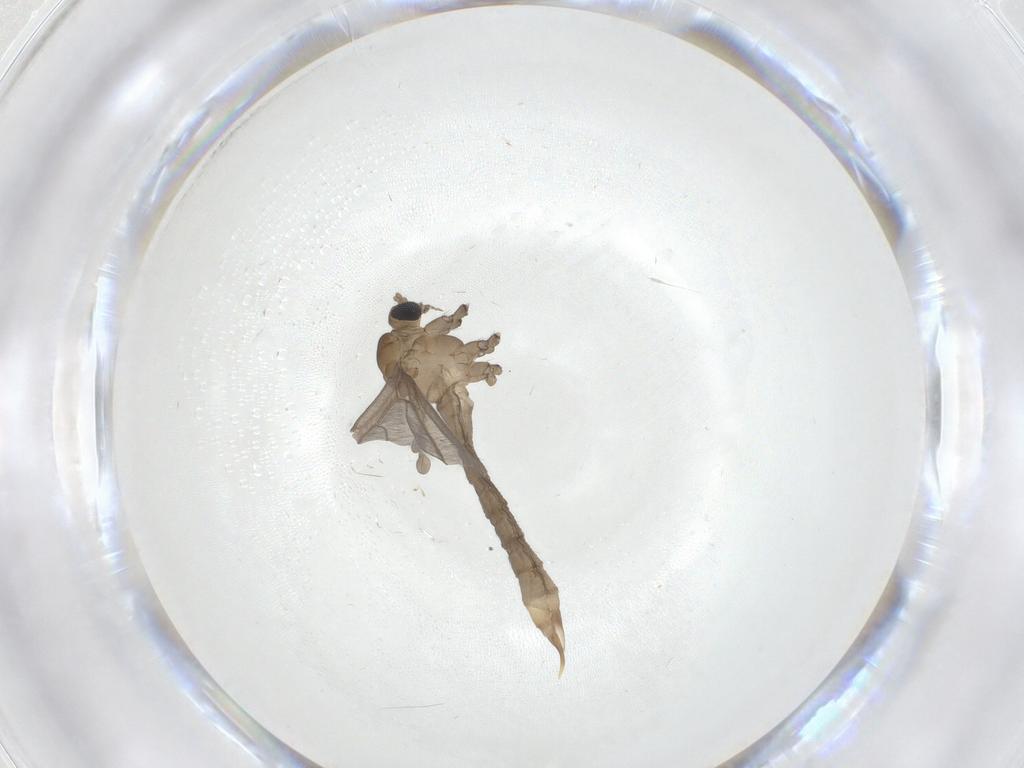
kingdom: Animalia
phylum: Arthropoda
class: Insecta
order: Diptera
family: Limoniidae
